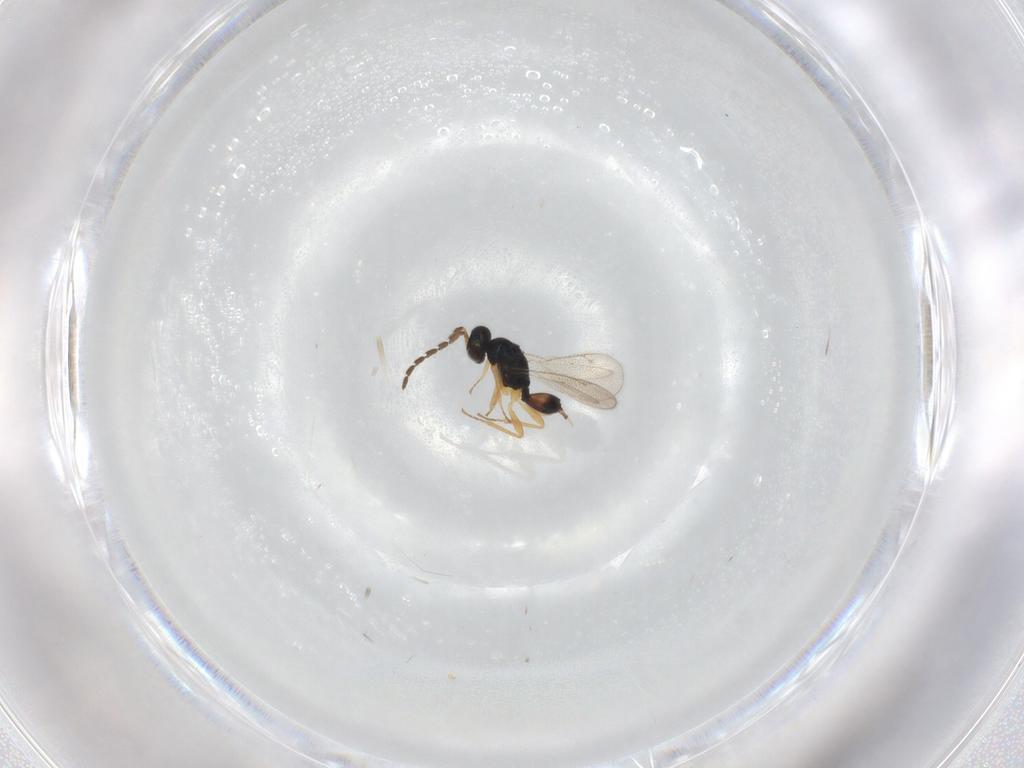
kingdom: Animalia
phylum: Arthropoda
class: Insecta
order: Hymenoptera
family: Eulophidae
